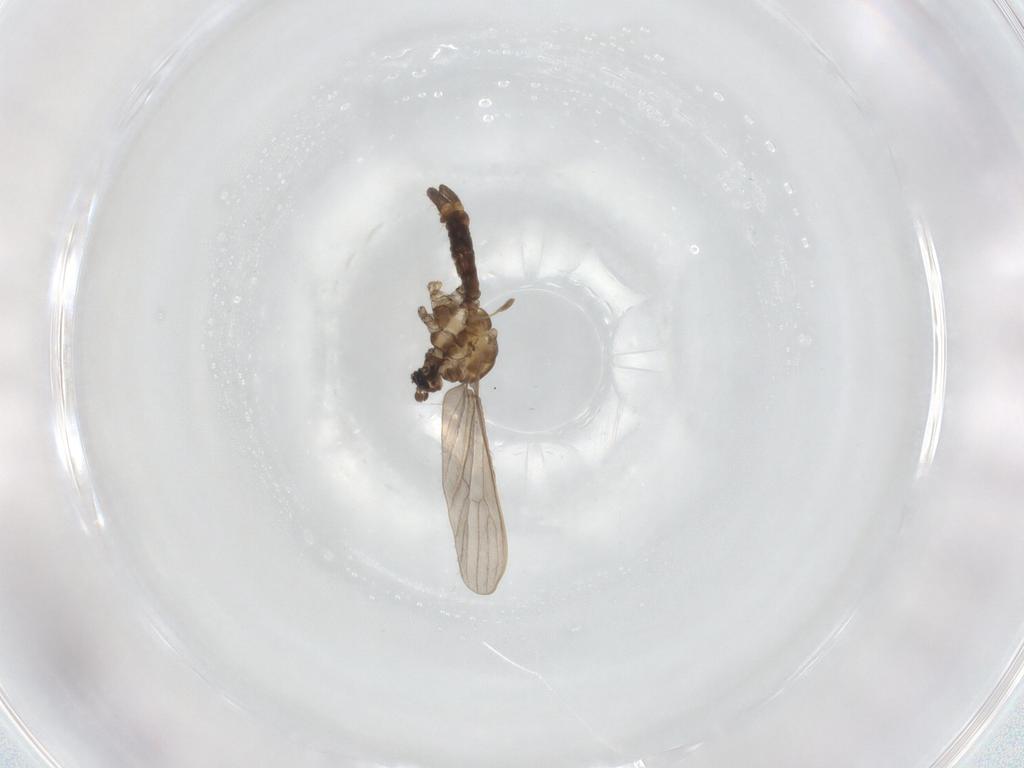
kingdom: Animalia
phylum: Arthropoda
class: Insecta
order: Diptera
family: Limoniidae
